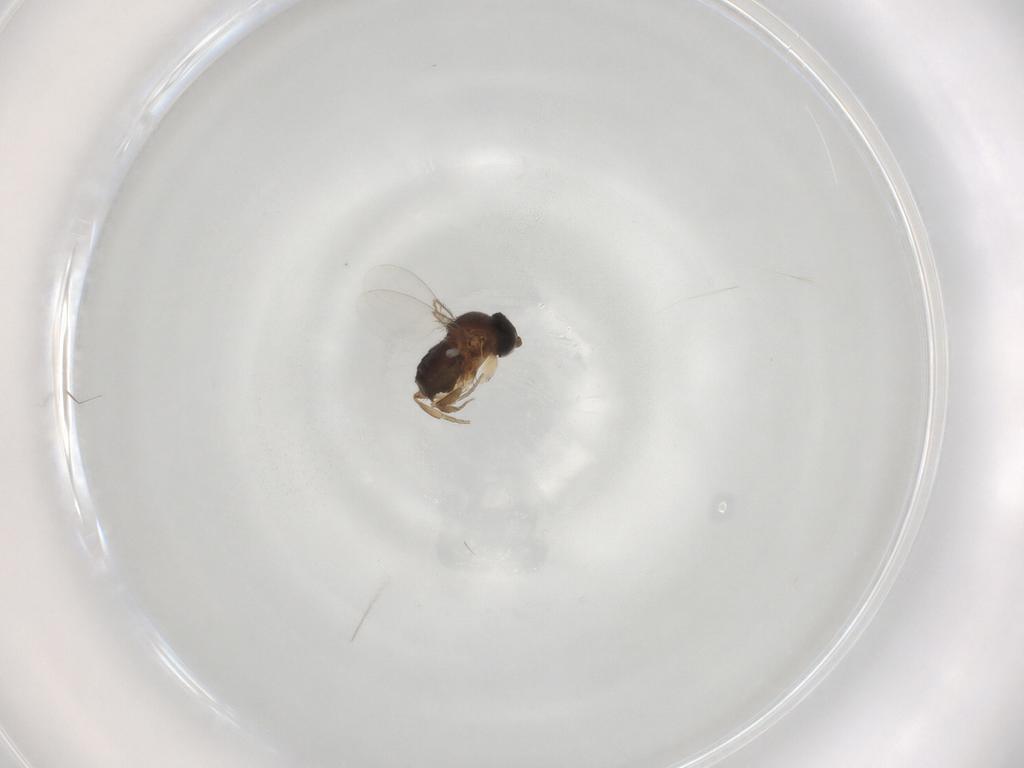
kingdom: Animalia
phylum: Arthropoda
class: Insecta
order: Diptera
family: Phoridae
